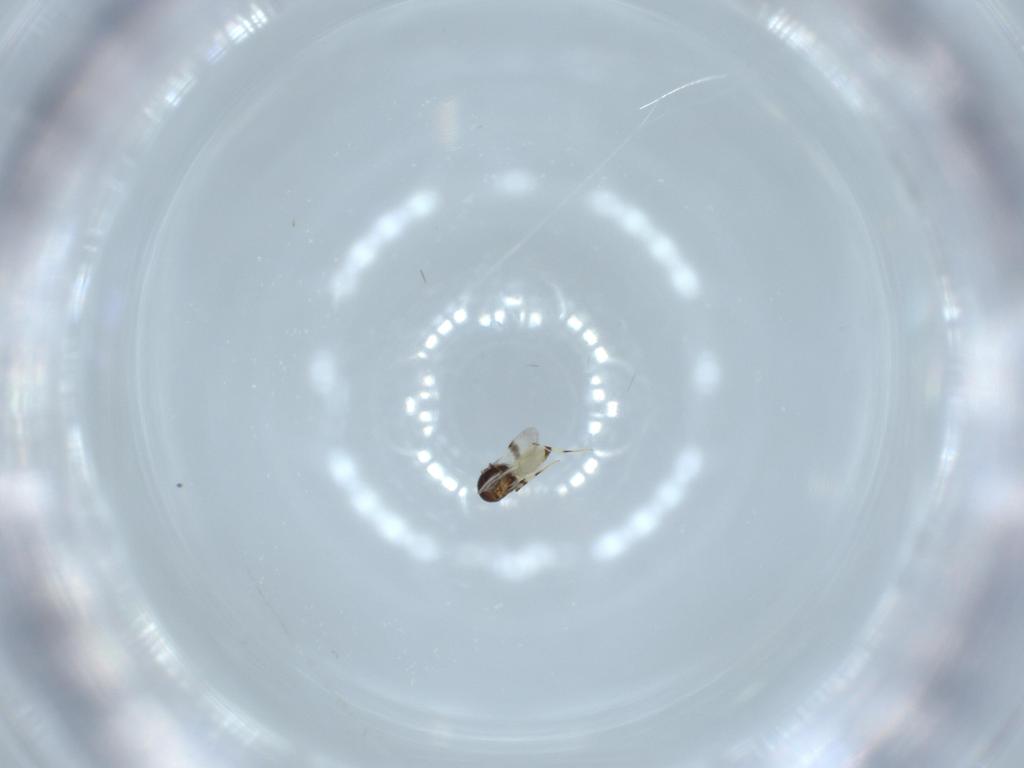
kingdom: Animalia
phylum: Arthropoda
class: Insecta
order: Hymenoptera
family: Scelionidae
